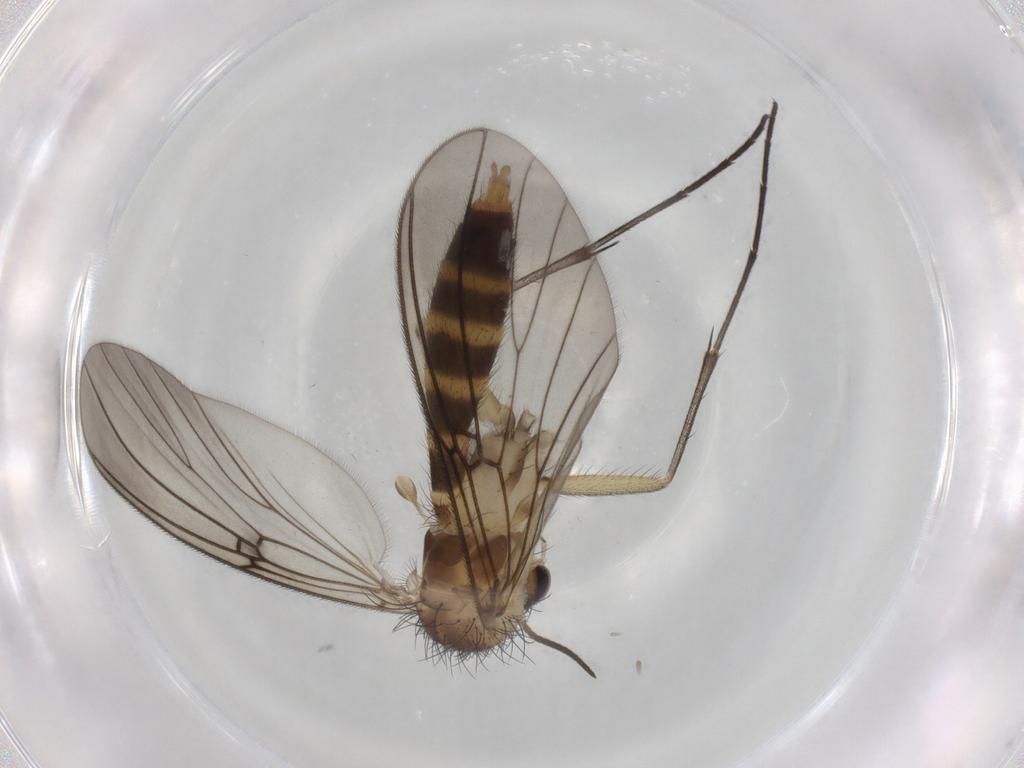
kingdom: Animalia
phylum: Arthropoda
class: Insecta
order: Diptera
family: Mycetophilidae
